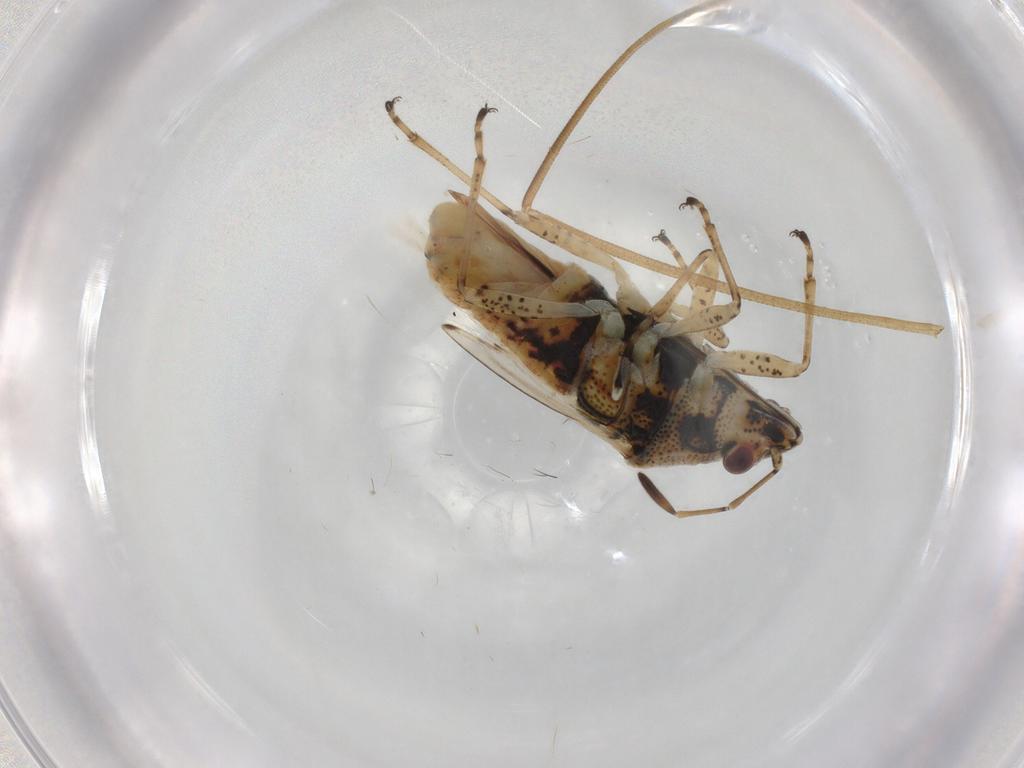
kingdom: Animalia
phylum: Arthropoda
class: Insecta
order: Hemiptera
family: Lygaeidae
